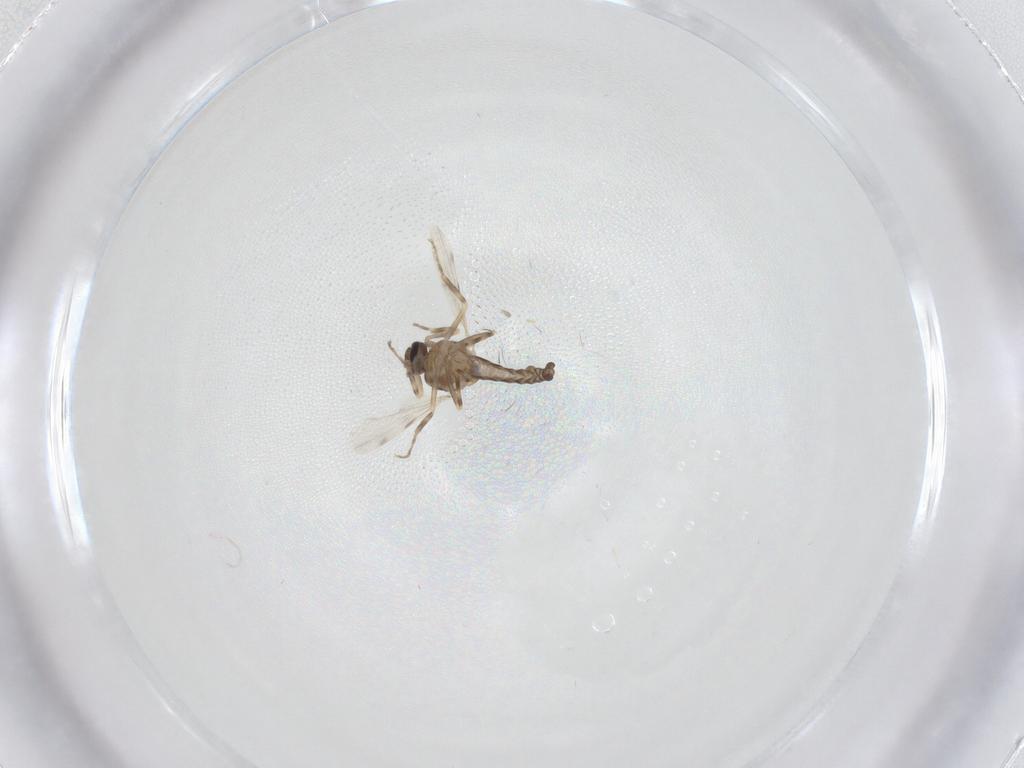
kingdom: Animalia
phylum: Arthropoda
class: Insecta
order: Diptera
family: Ceratopogonidae
